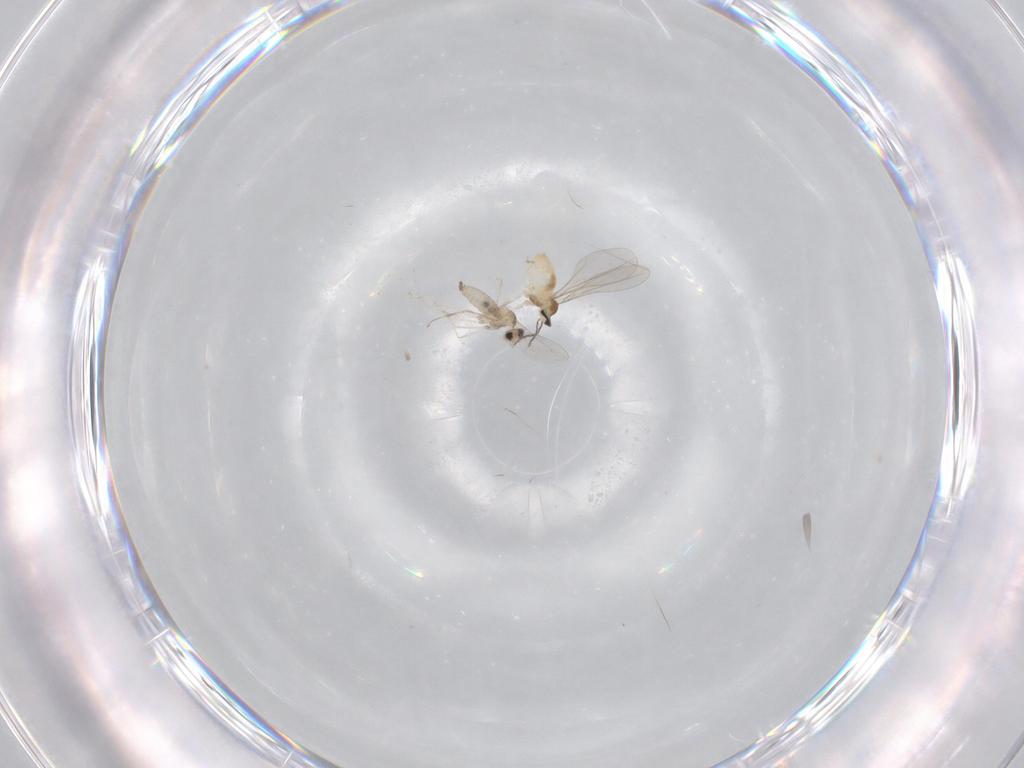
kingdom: Animalia
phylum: Arthropoda
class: Insecta
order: Diptera
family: Cecidomyiidae
